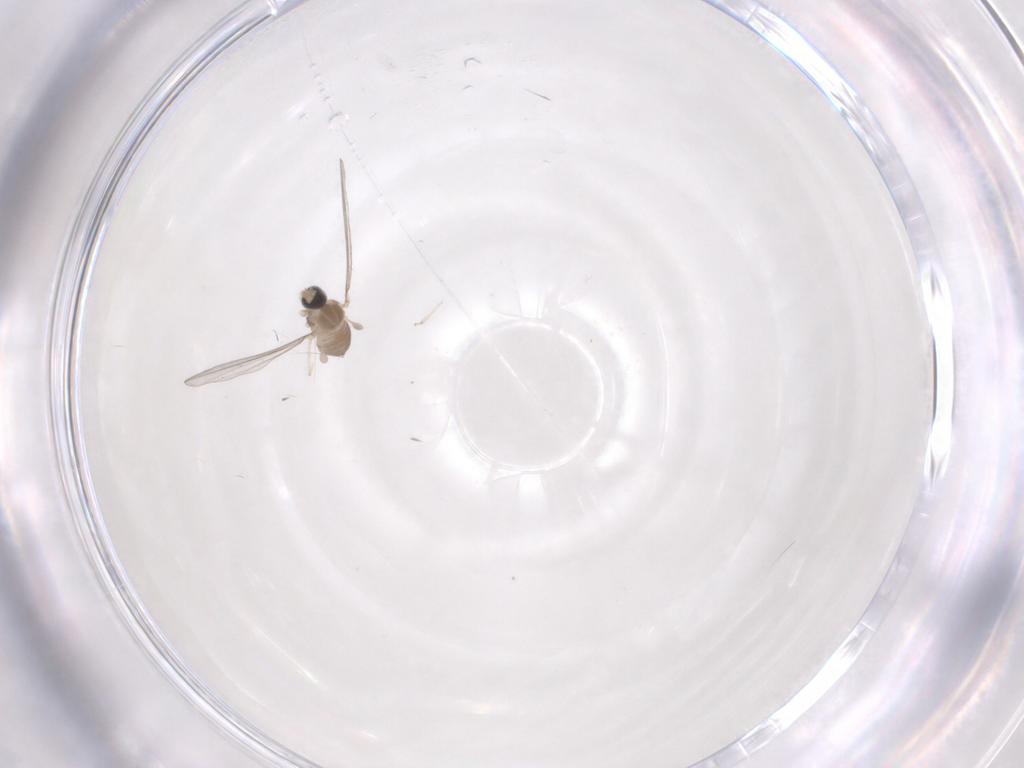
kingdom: Animalia
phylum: Arthropoda
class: Insecta
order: Diptera
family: Cecidomyiidae
